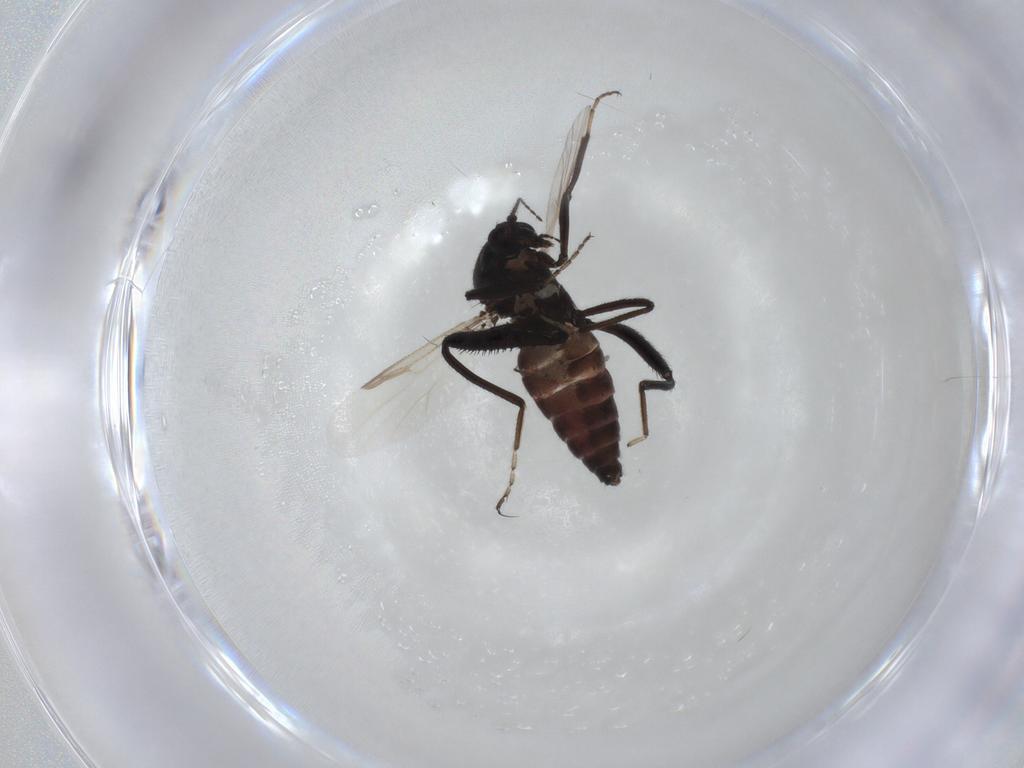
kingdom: Animalia
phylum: Arthropoda
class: Insecta
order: Diptera
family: Ceratopogonidae
